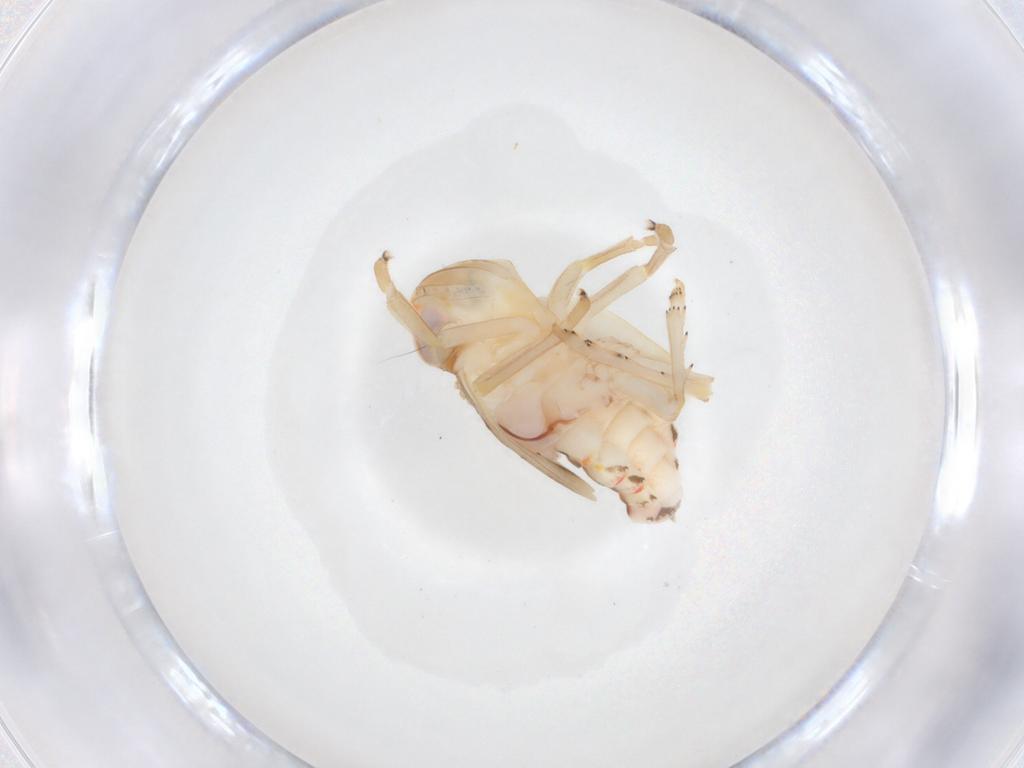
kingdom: Animalia
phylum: Arthropoda
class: Insecta
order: Hemiptera
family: Nogodinidae
